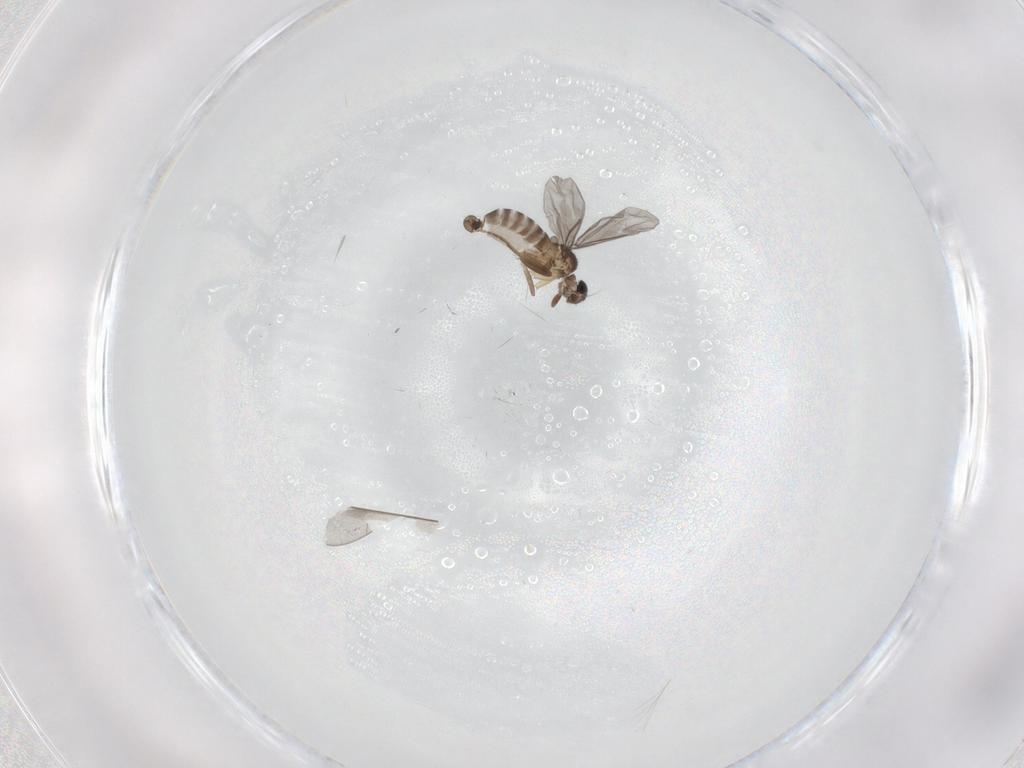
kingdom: Animalia
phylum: Arthropoda
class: Insecta
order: Diptera
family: Cecidomyiidae
